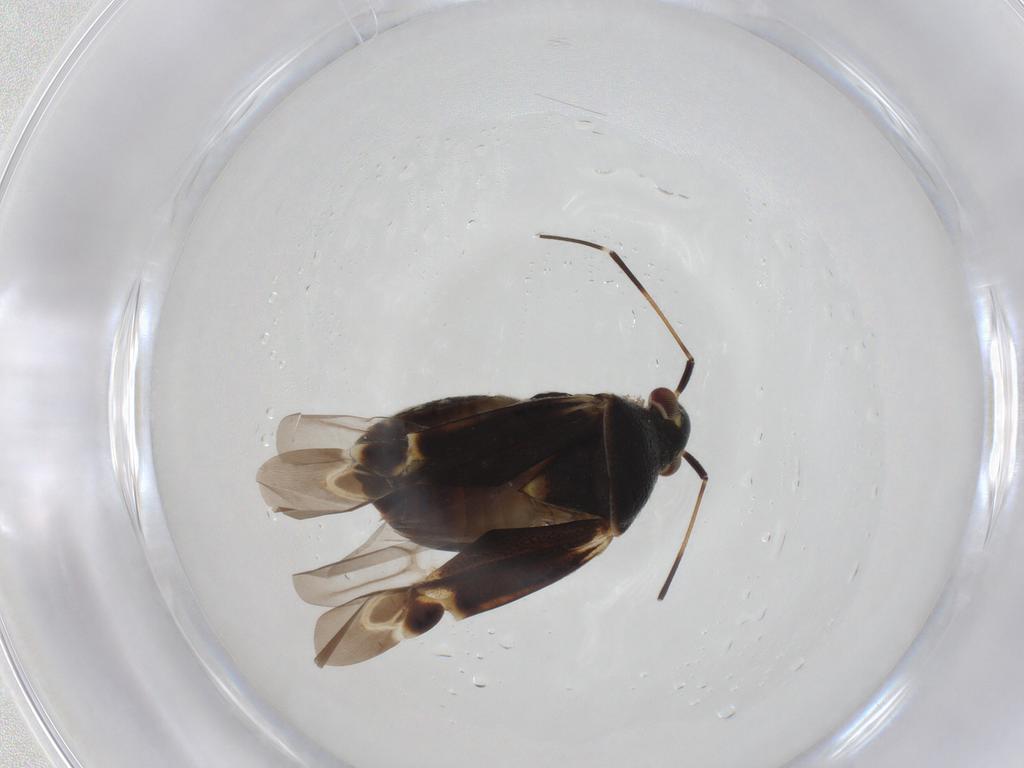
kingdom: Animalia
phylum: Arthropoda
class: Insecta
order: Hemiptera
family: Miridae
